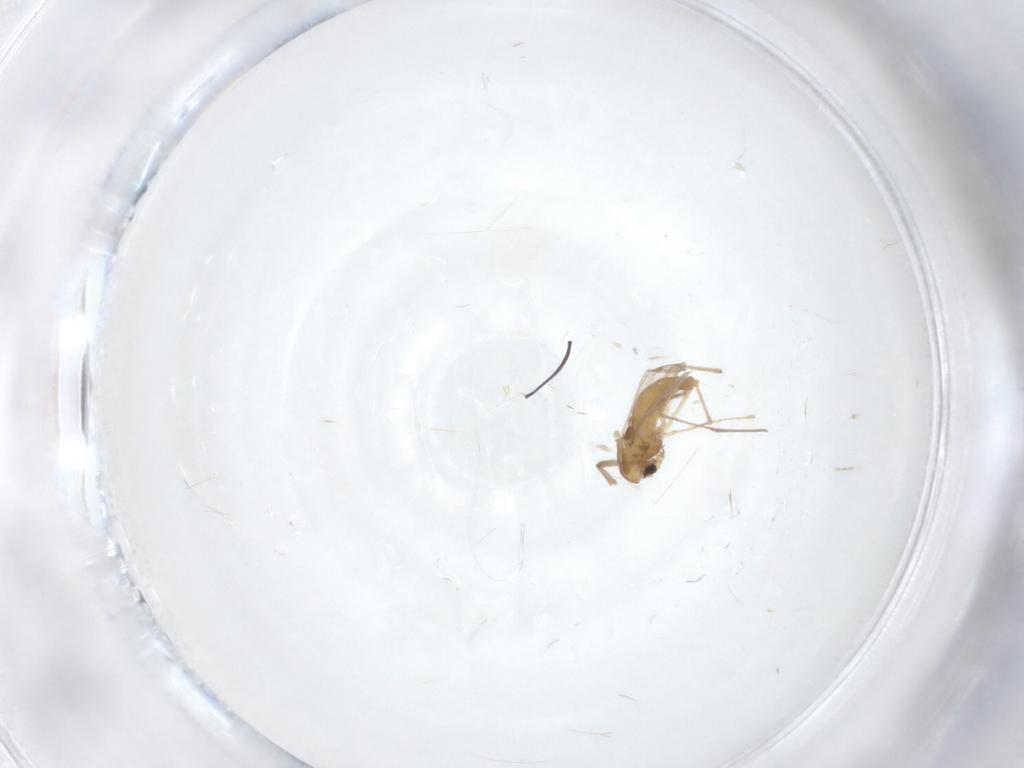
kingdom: Animalia
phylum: Arthropoda
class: Insecta
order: Diptera
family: Chironomidae
